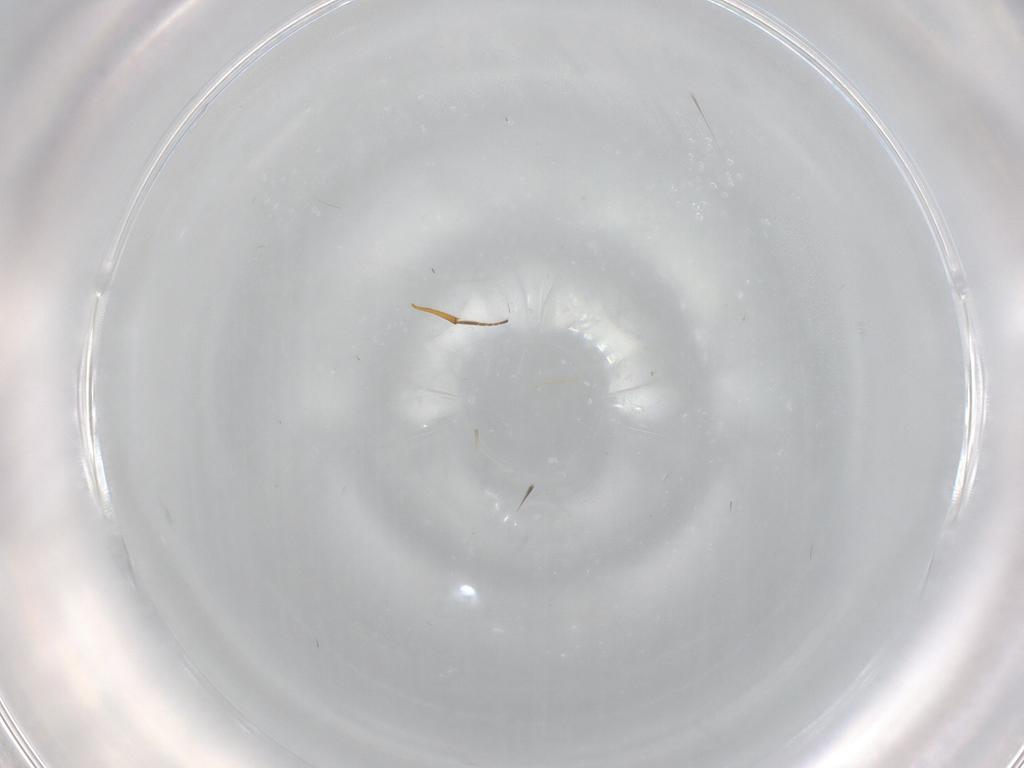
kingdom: Animalia
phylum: Arthropoda
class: Insecta
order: Hymenoptera
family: Figitidae
